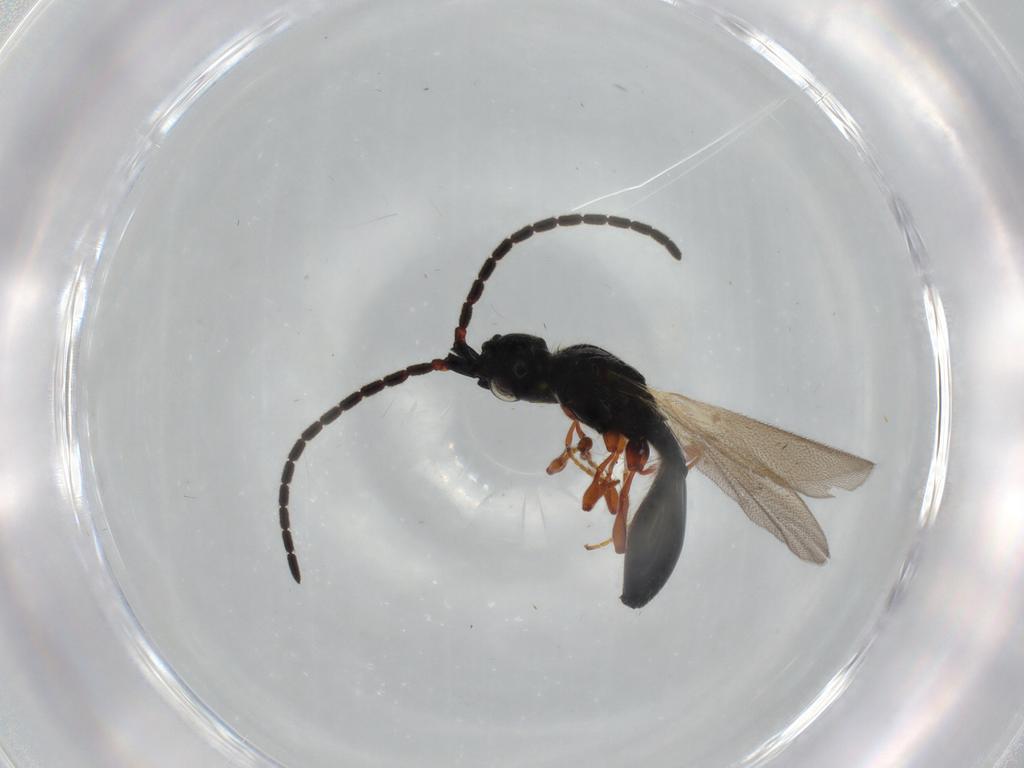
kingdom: Animalia
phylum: Arthropoda
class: Insecta
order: Hymenoptera
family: Diapriidae
